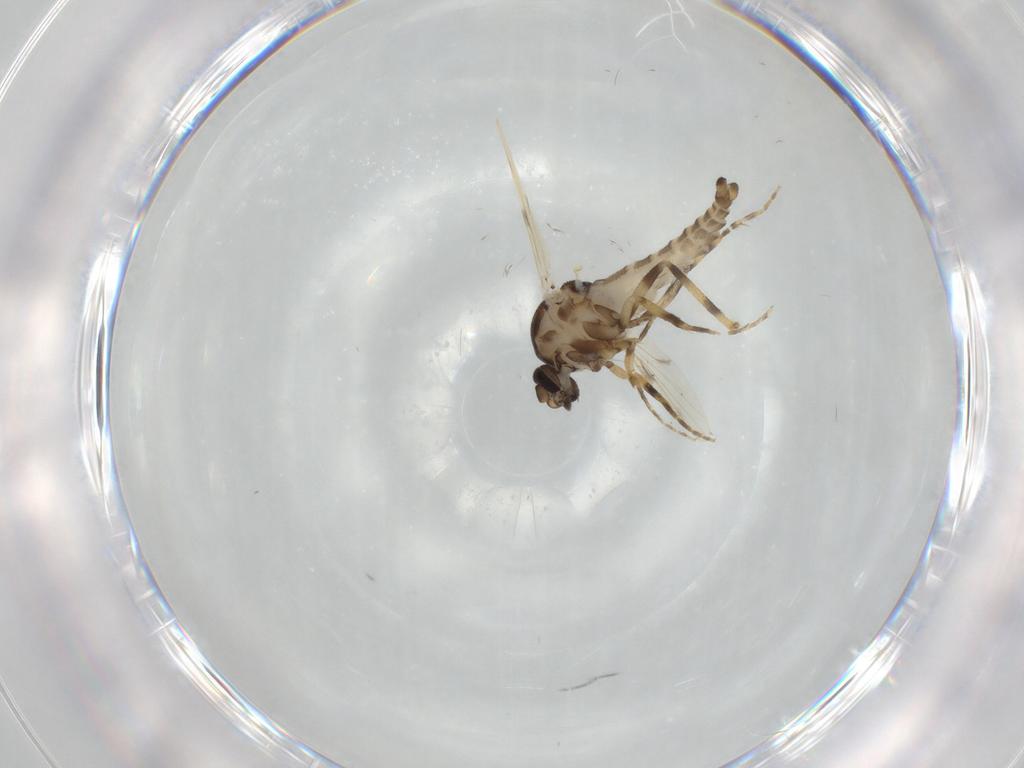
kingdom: Animalia
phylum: Arthropoda
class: Insecta
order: Diptera
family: Ceratopogonidae
